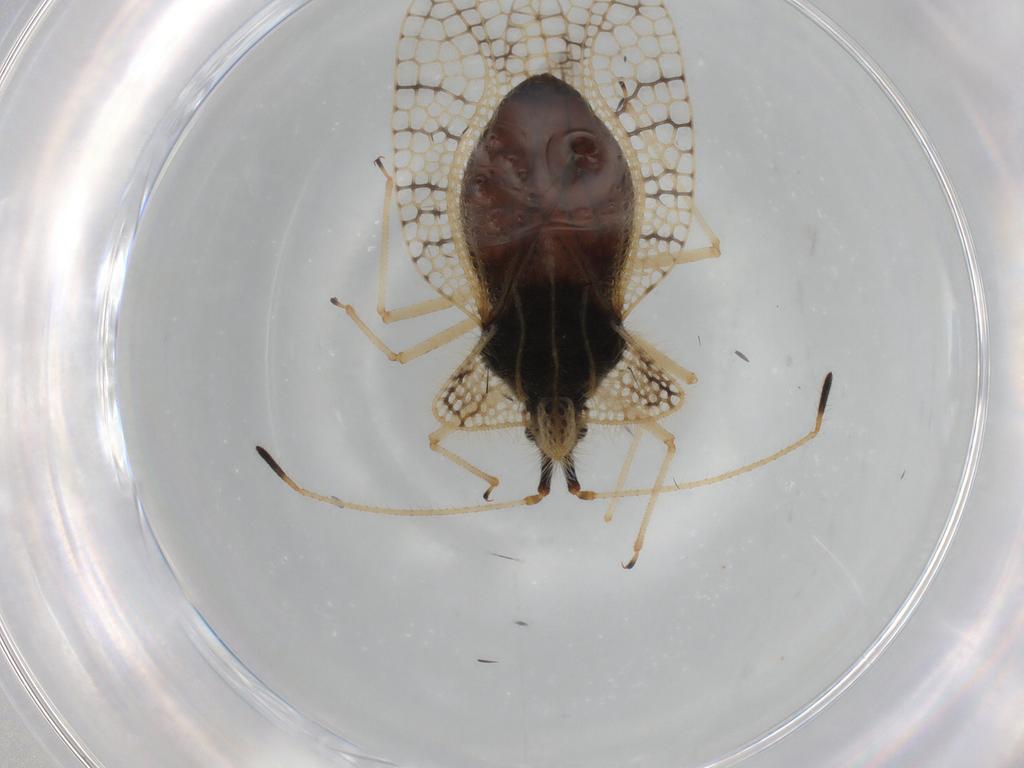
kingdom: Animalia
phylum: Arthropoda
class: Insecta
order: Hemiptera
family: Tingidae
